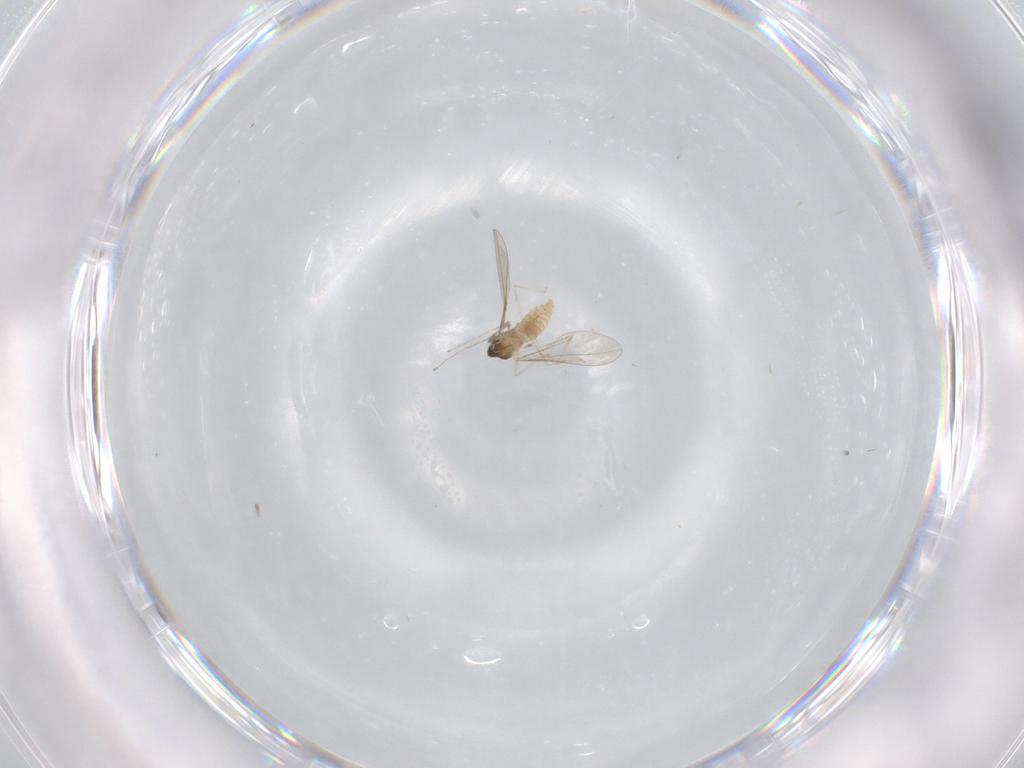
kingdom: Animalia
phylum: Arthropoda
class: Insecta
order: Diptera
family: Cecidomyiidae
